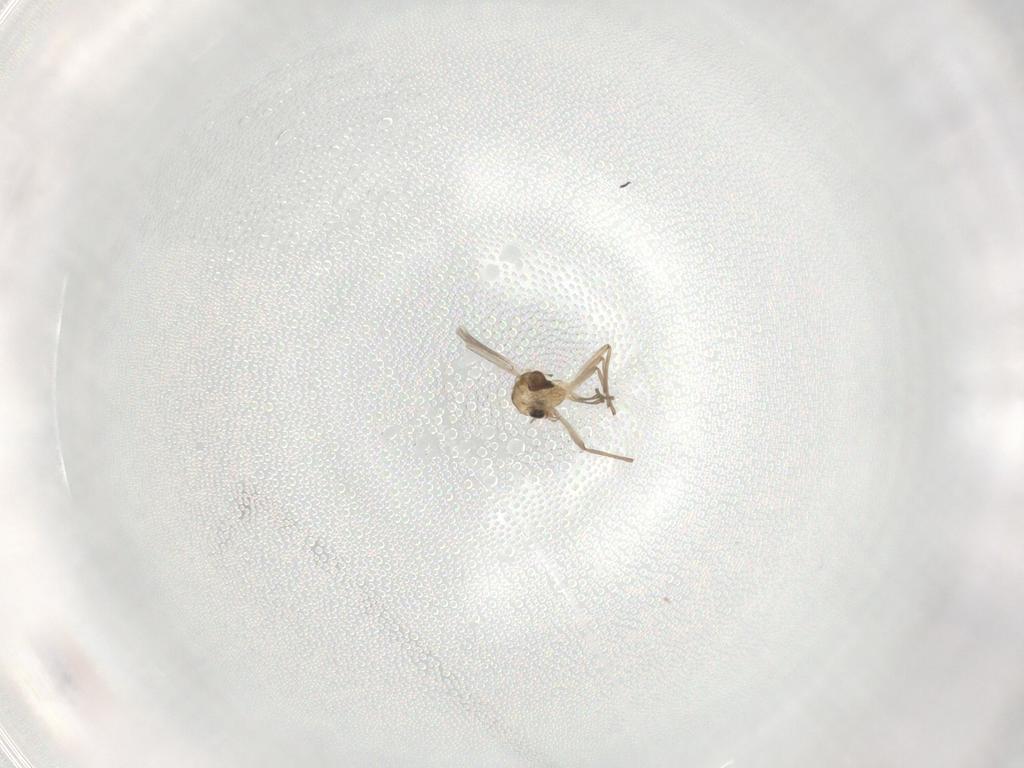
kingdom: Animalia
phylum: Arthropoda
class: Insecta
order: Diptera
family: Chironomidae
